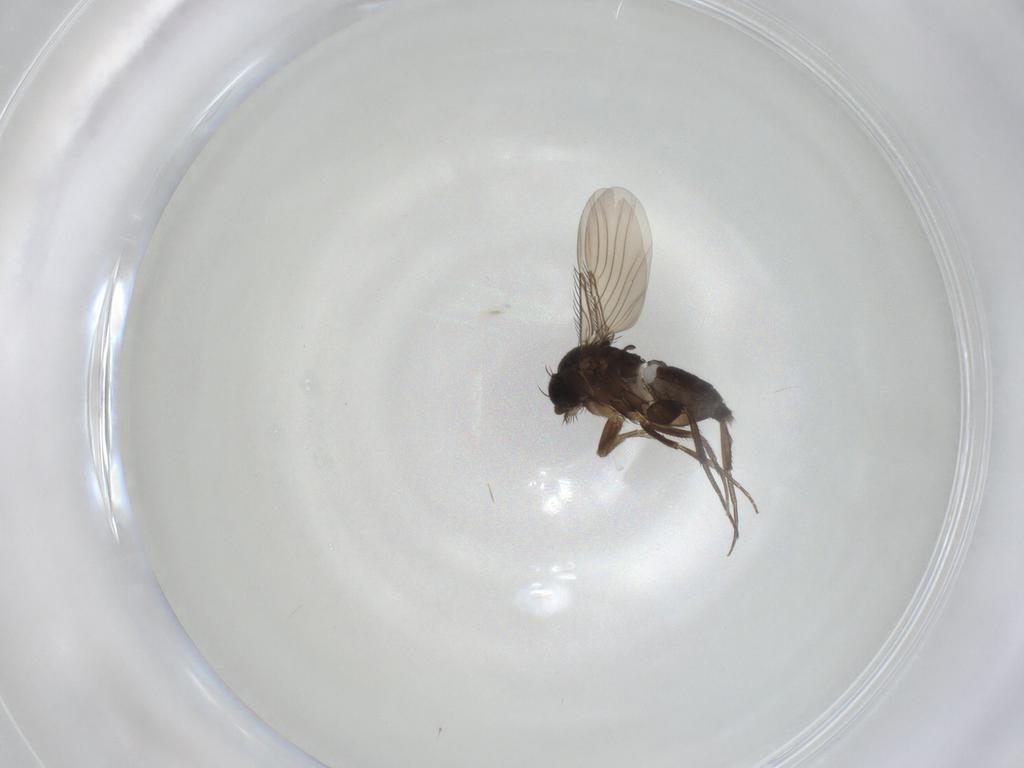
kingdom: Animalia
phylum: Arthropoda
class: Insecta
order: Diptera
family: Phoridae
